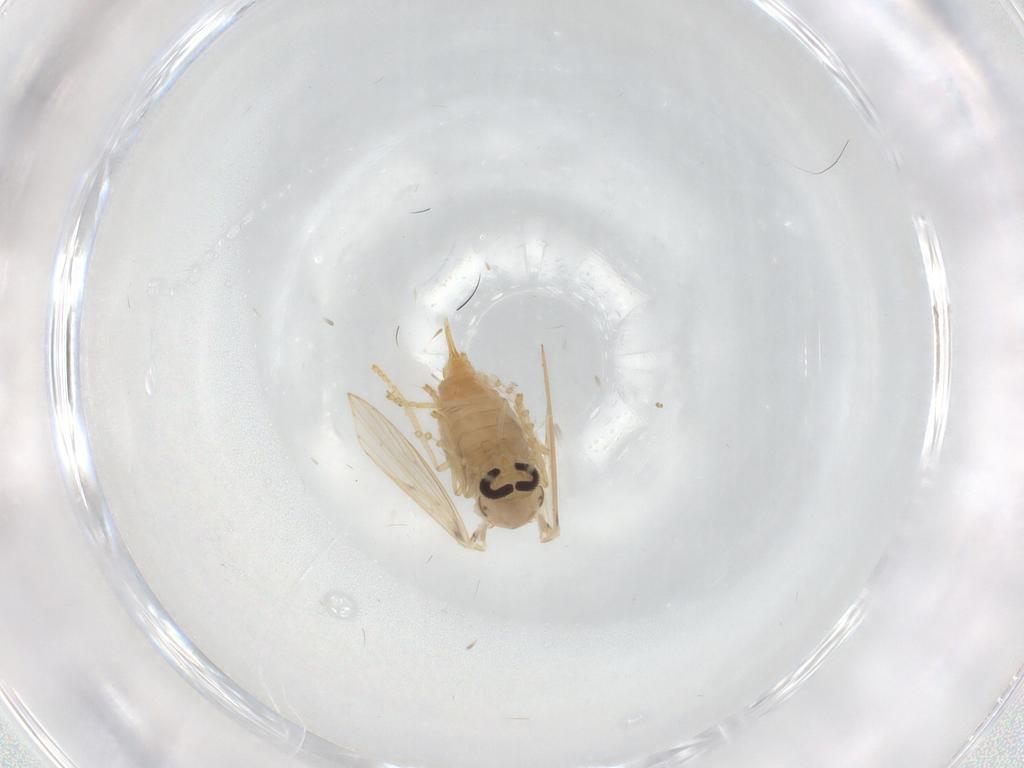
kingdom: Animalia
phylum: Arthropoda
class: Insecta
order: Diptera
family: Psychodidae
